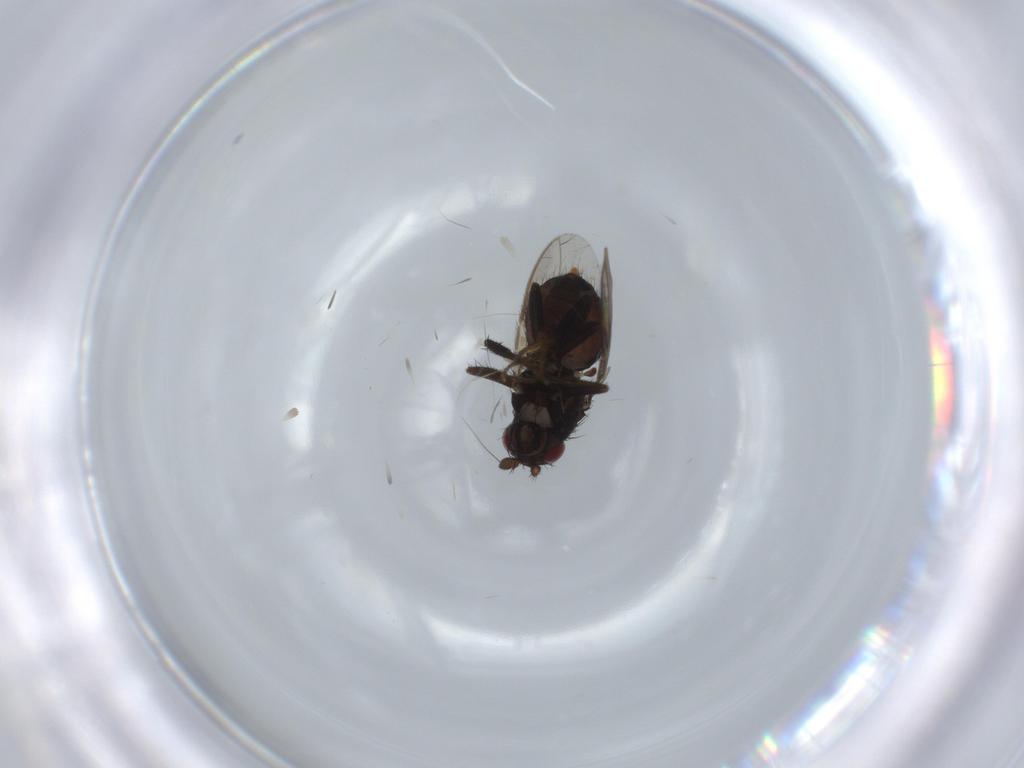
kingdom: Animalia
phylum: Arthropoda
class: Insecta
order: Diptera
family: Sphaeroceridae
